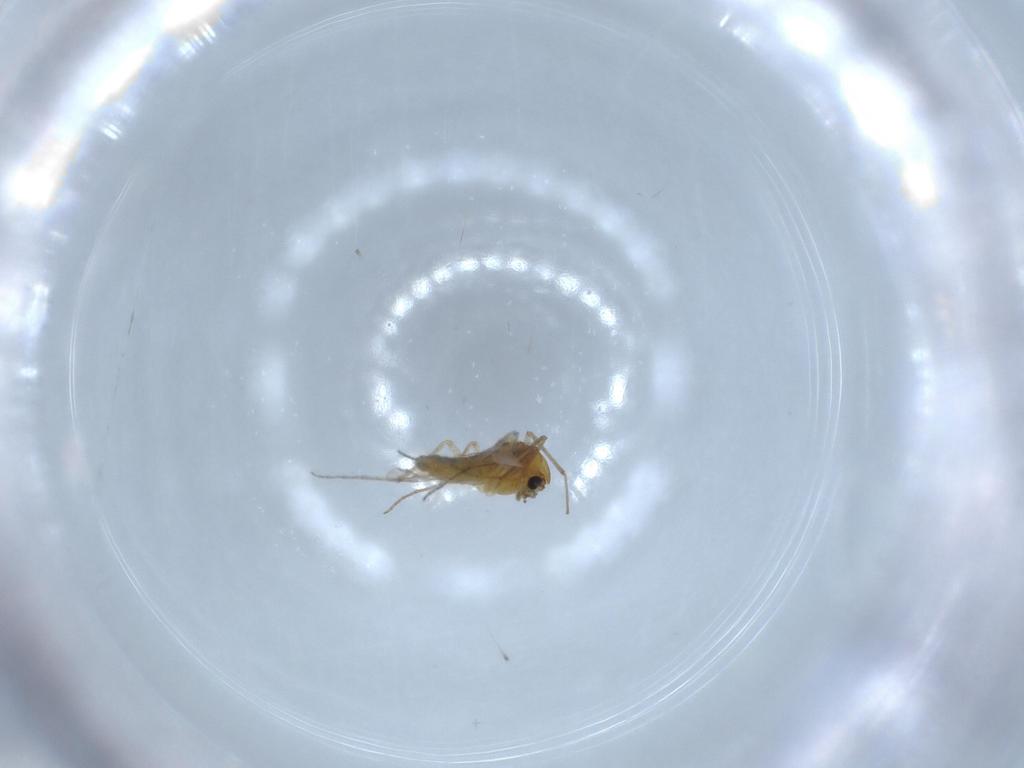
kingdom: Animalia
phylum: Arthropoda
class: Insecta
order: Diptera
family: Chironomidae
